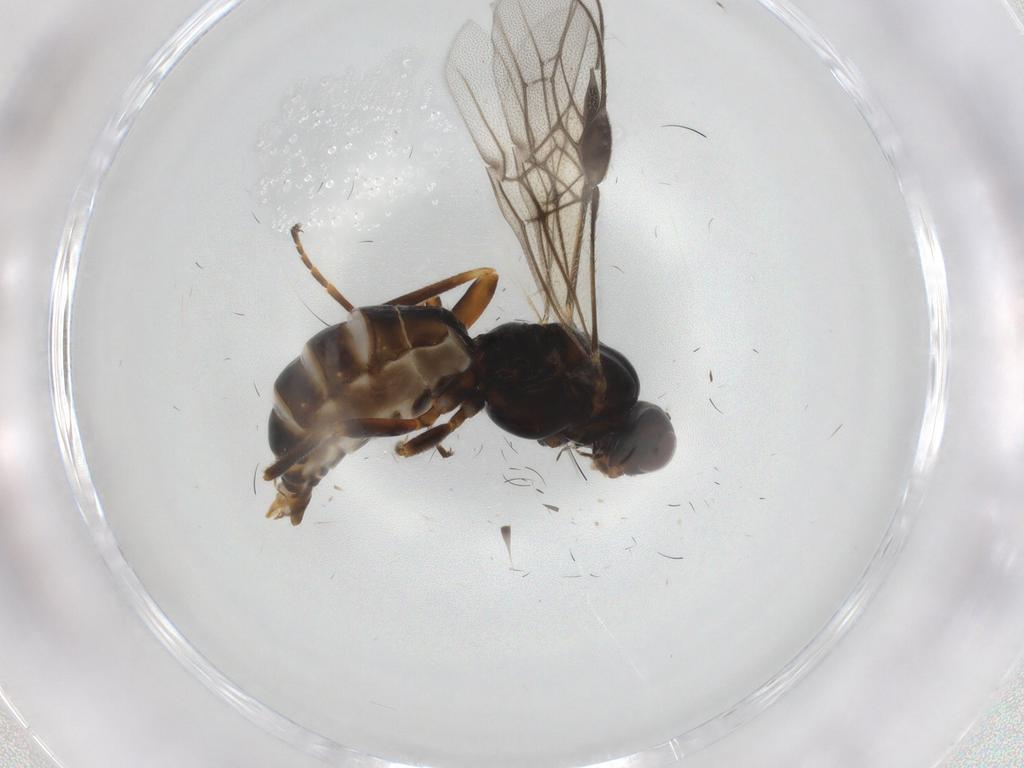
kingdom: Animalia
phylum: Arthropoda
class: Insecta
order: Hymenoptera
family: Braconidae
